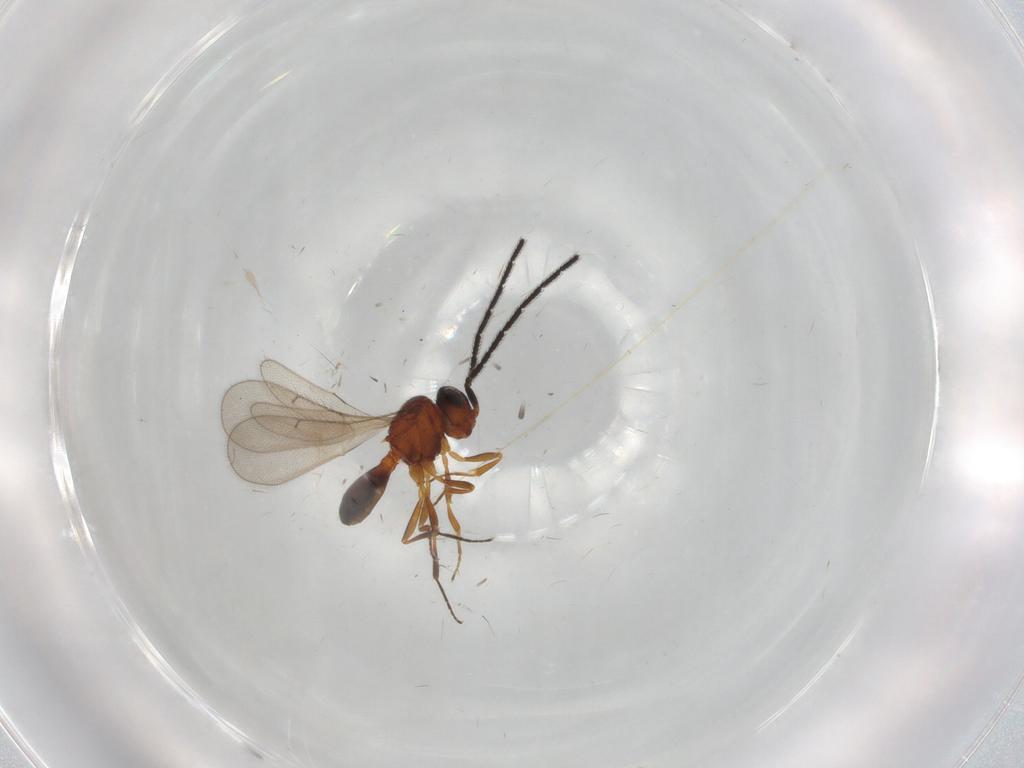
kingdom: Animalia
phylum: Arthropoda
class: Insecta
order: Hymenoptera
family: Scelionidae
